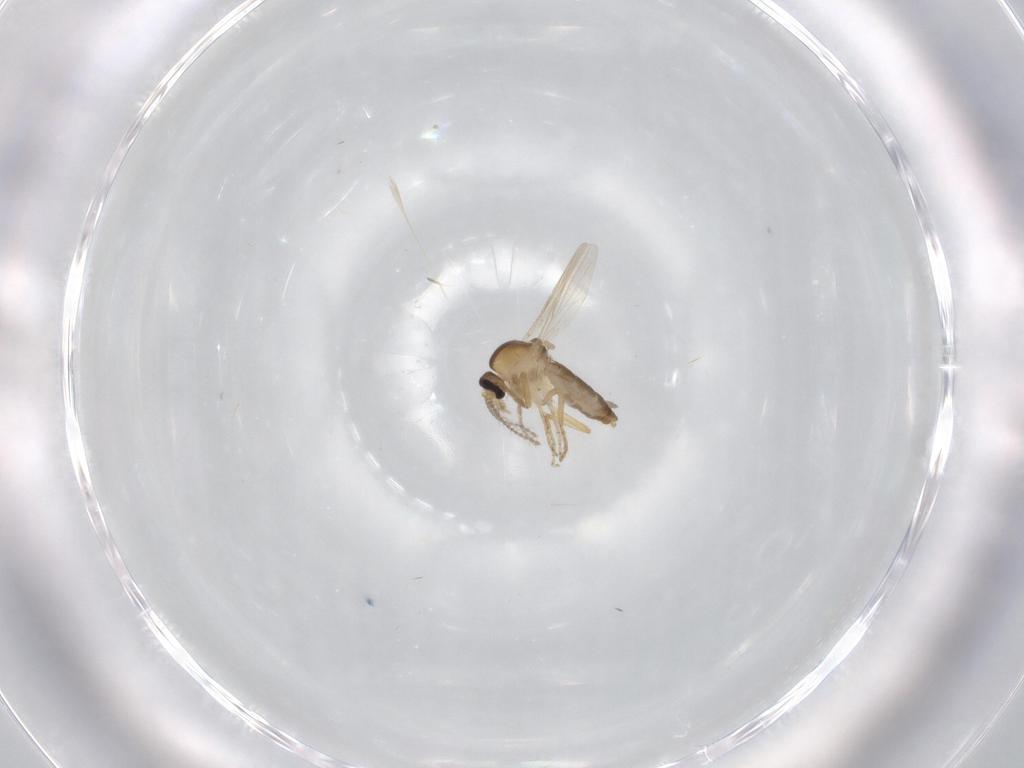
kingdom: Animalia
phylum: Arthropoda
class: Insecta
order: Diptera
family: Ceratopogonidae
